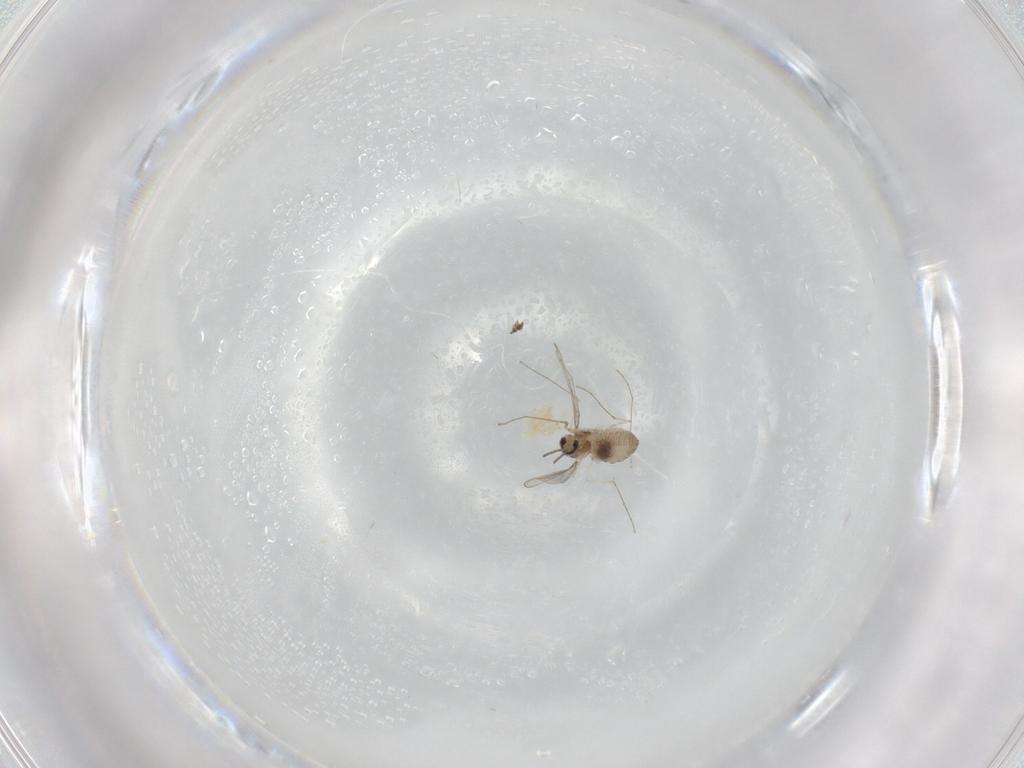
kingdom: Animalia
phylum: Arthropoda
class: Insecta
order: Diptera
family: Cecidomyiidae
